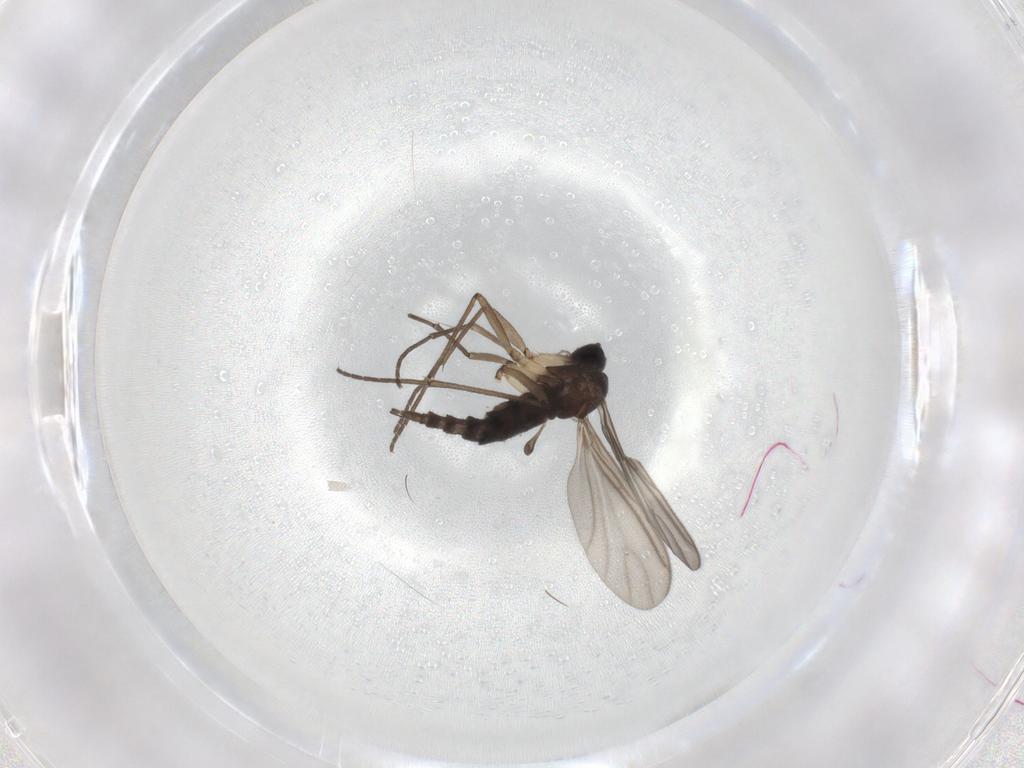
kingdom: Animalia
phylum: Arthropoda
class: Insecta
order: Diptera
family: Sciaridae
